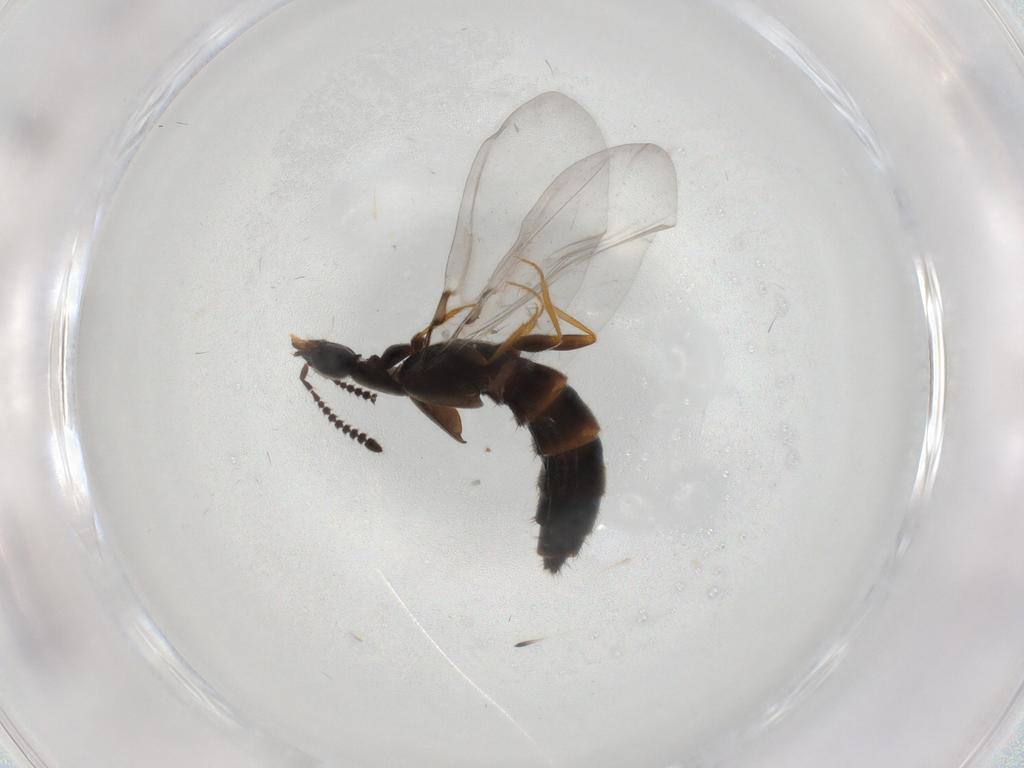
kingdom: Animalia
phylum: Arthropoda
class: Insecta
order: Coleoptera
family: Staphylinidae
